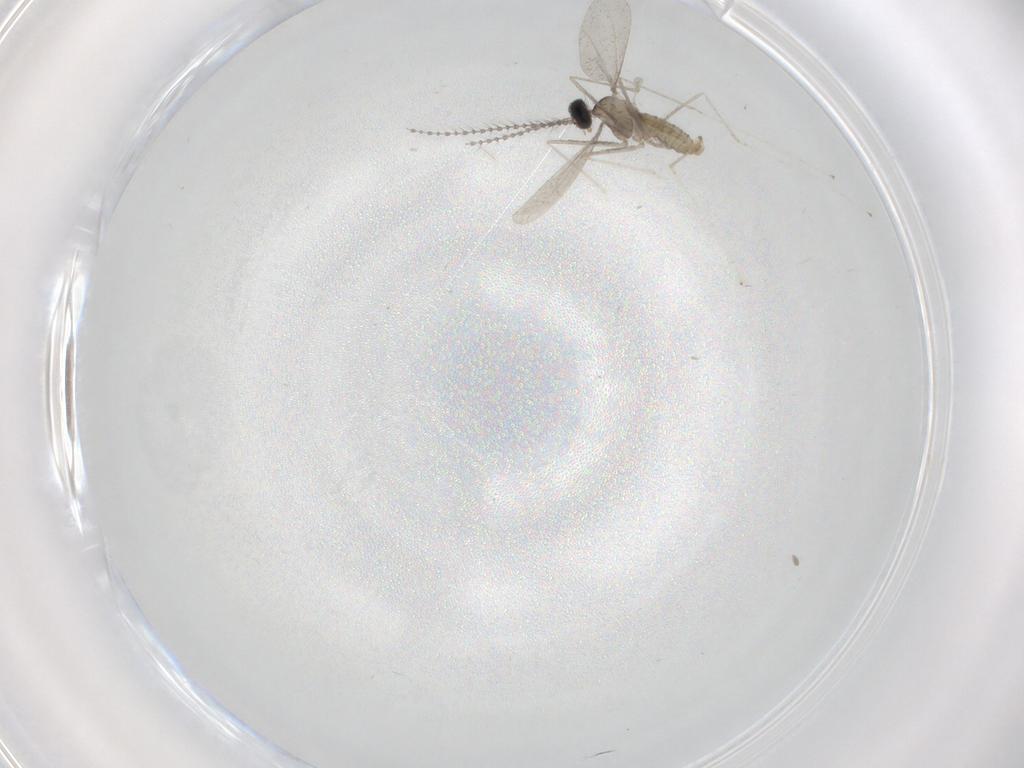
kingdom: Animalia
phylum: Arthropoda
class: Insecta
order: Diptera
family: Cecidomyiidae
